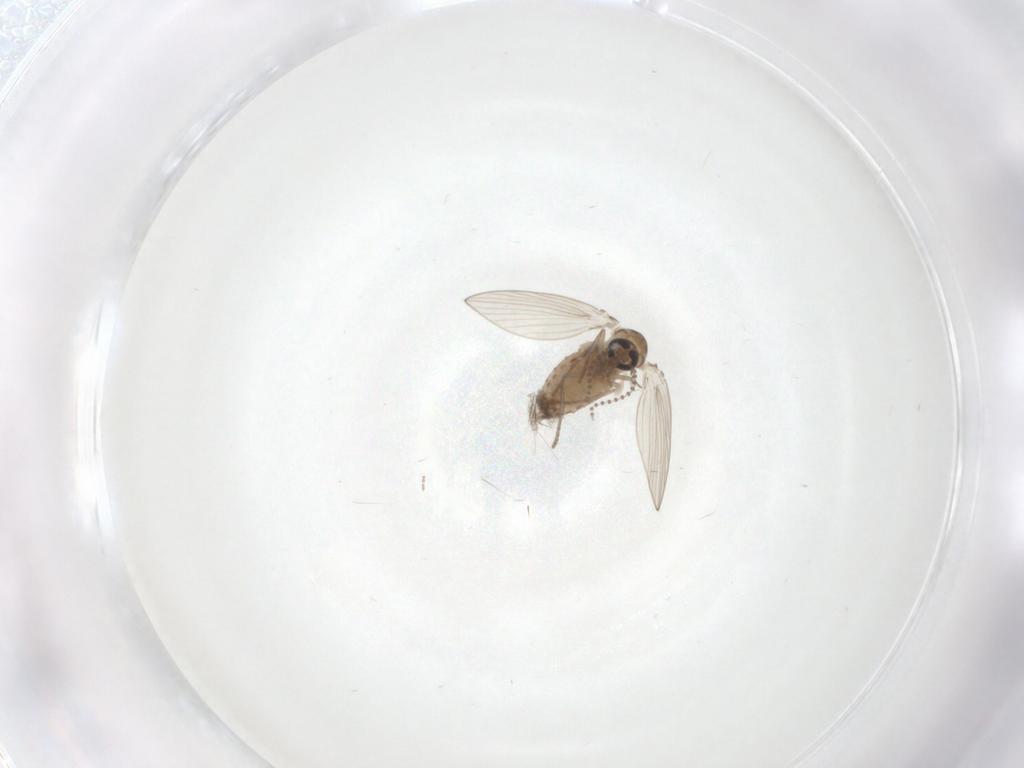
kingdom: Animalia
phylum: Arthropoda
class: Insecta
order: Diptera
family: Psychodidae
